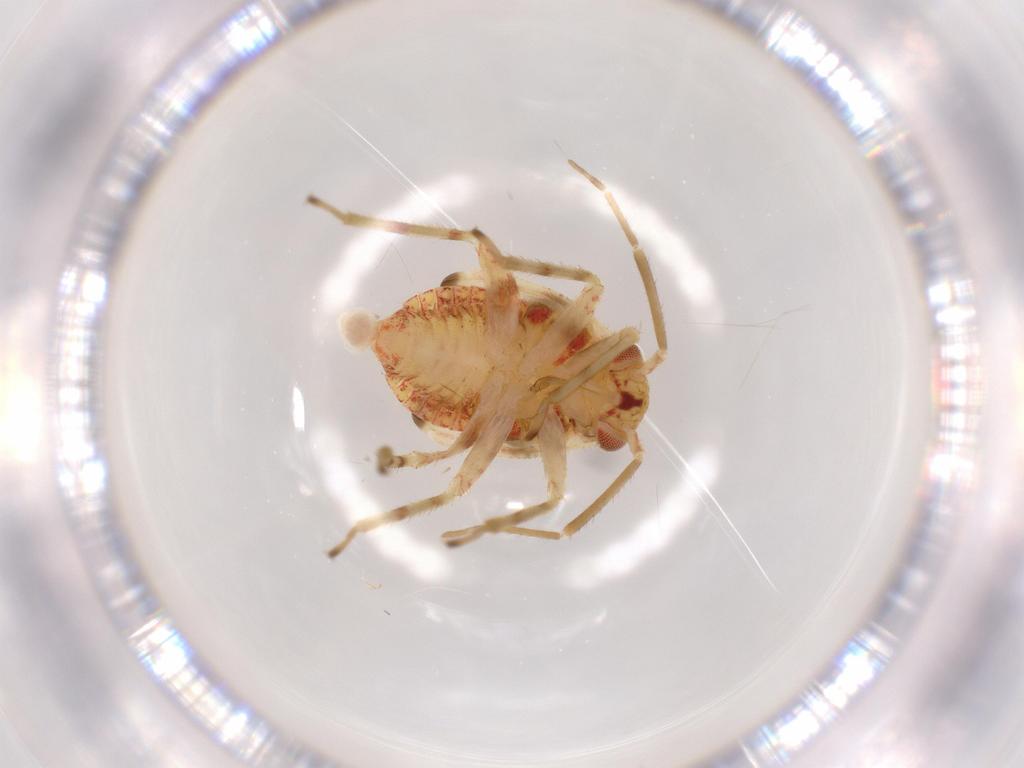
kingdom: Animalia
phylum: Arthropoda
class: Insecta
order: Hemiptera
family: Miridae
